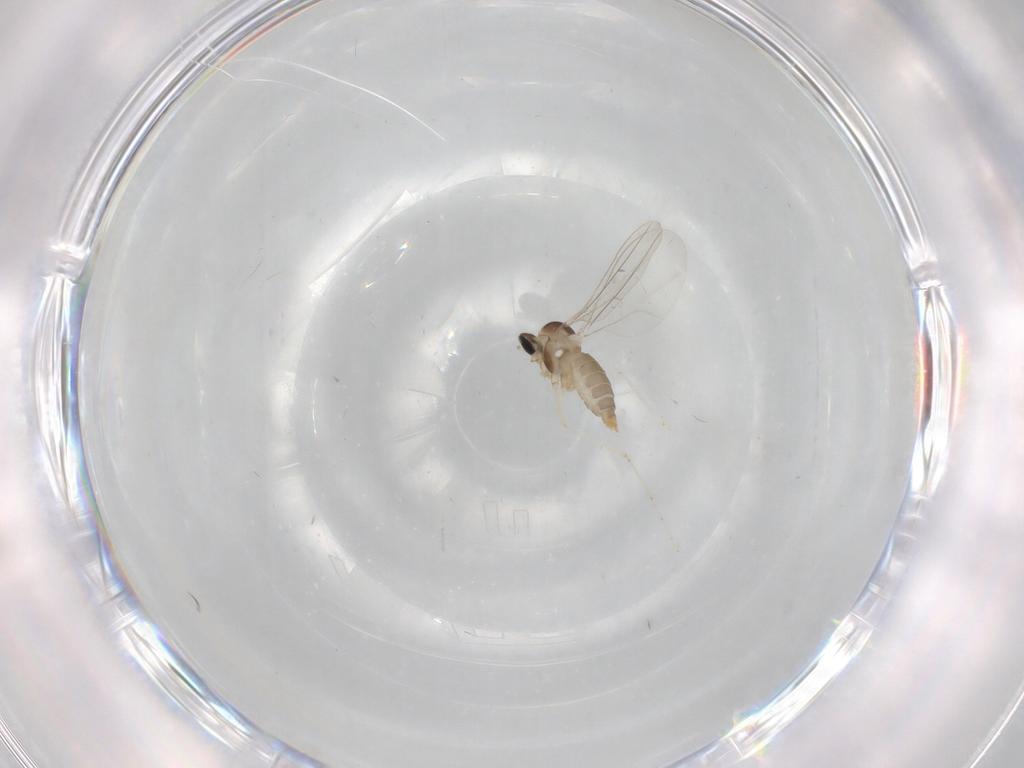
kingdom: Animalia
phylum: Arthropoda
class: Insecta
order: Diptera
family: Cecidomyiidae
